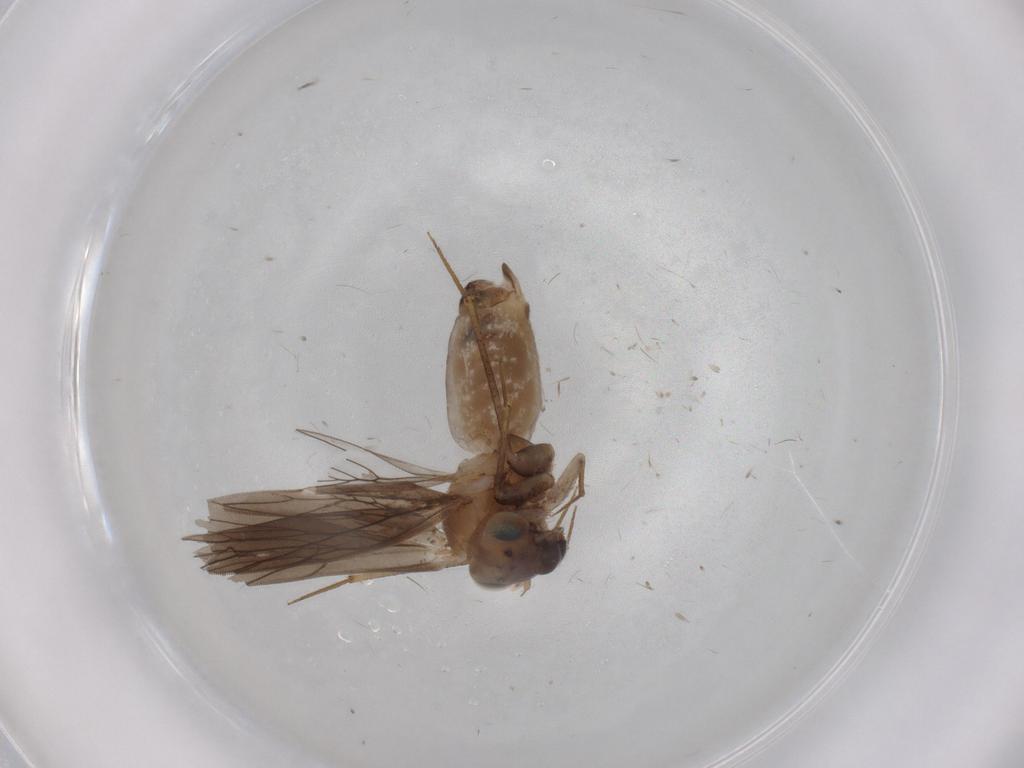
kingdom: Animalia
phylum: Arthropoda
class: Insecta
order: Psocodea
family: Lepidopsocidae
